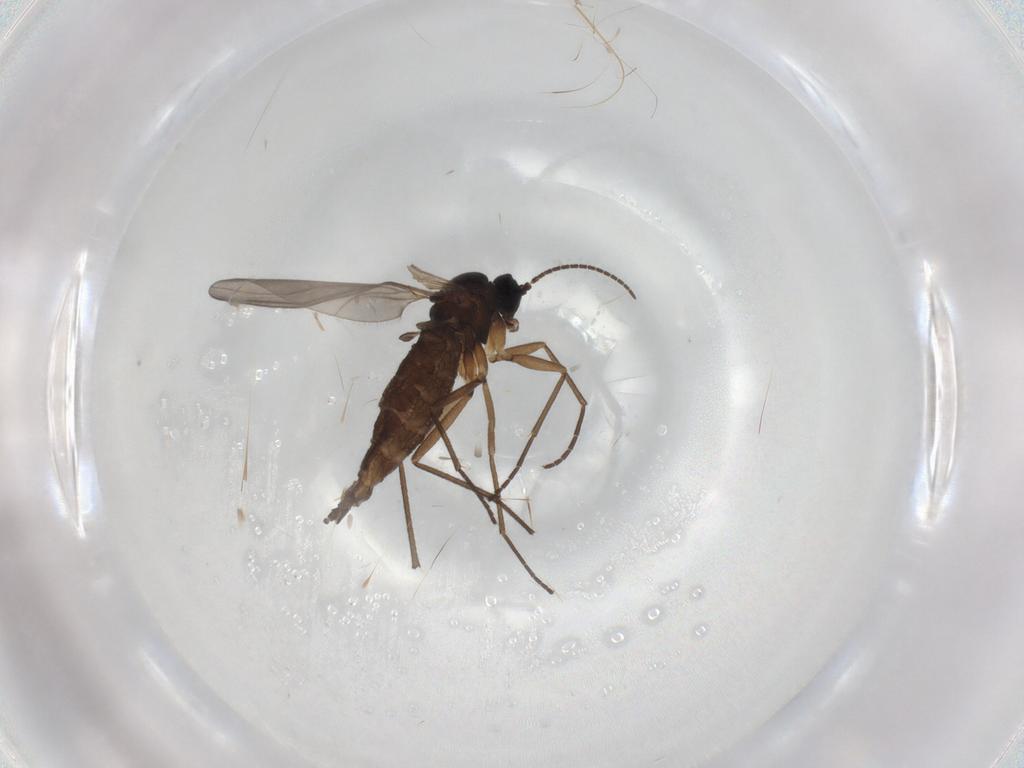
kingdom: Animalia
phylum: Arthropoda
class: Insecta
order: Diptera
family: Sciaridae
